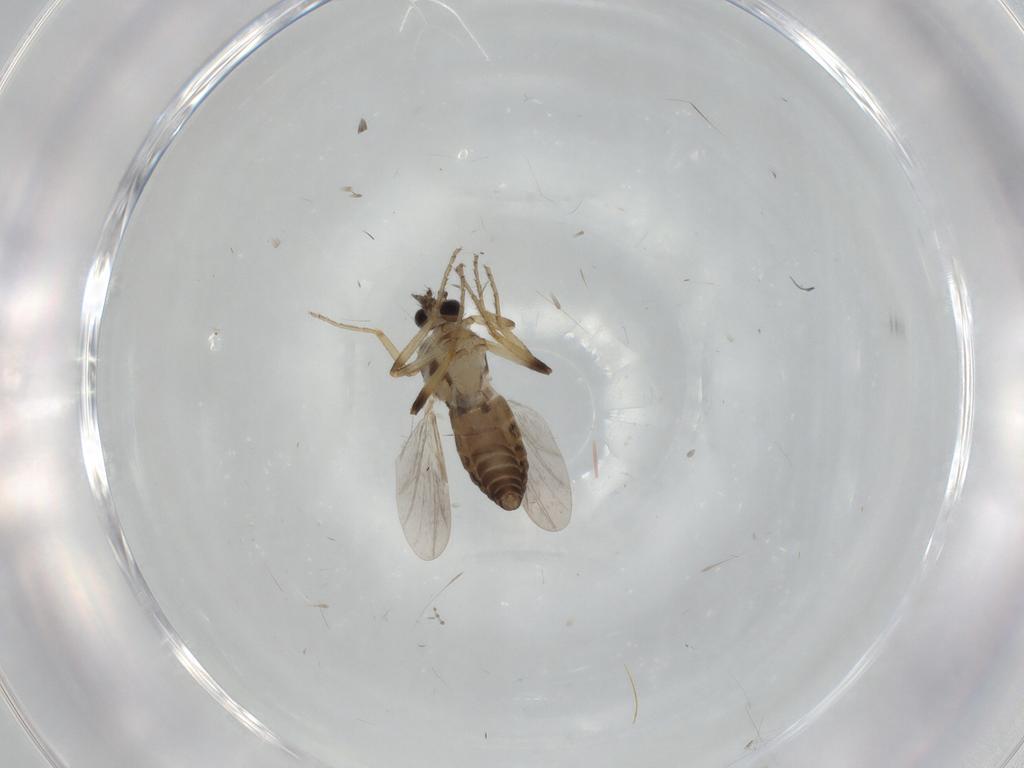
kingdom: Animalia
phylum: Arthropoda
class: Insecta
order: Diptera
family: Ceratopogonidae
